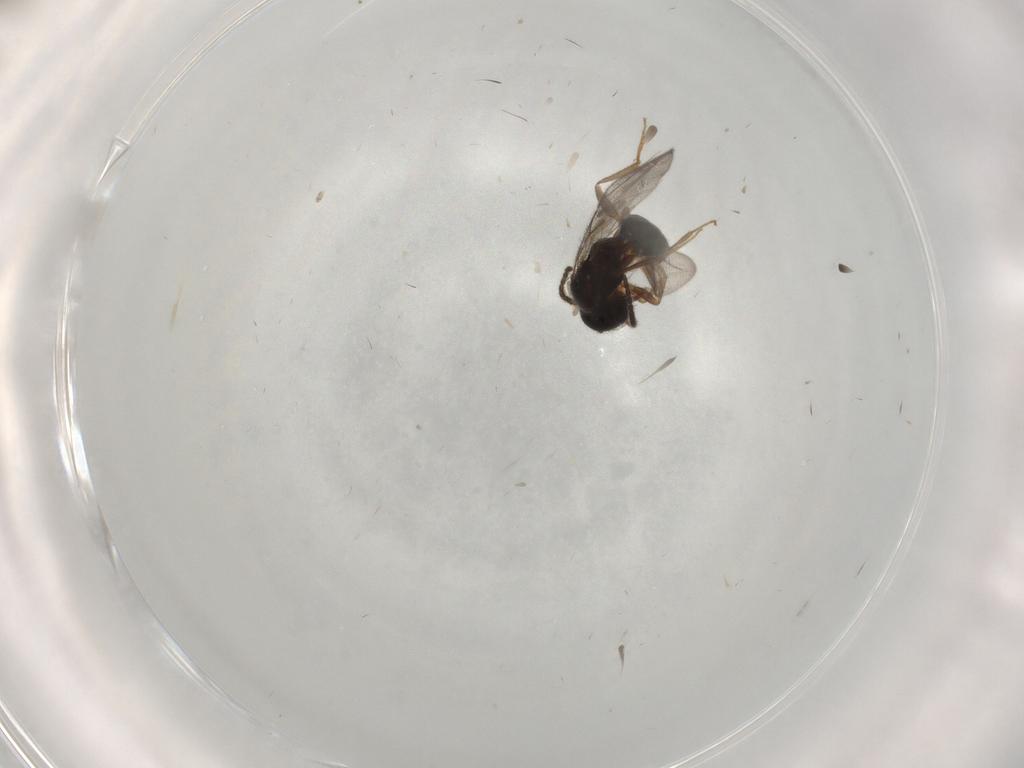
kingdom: Animalia
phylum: Arthropoda
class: Insecta
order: Hymenoptera
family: Bethylidae
